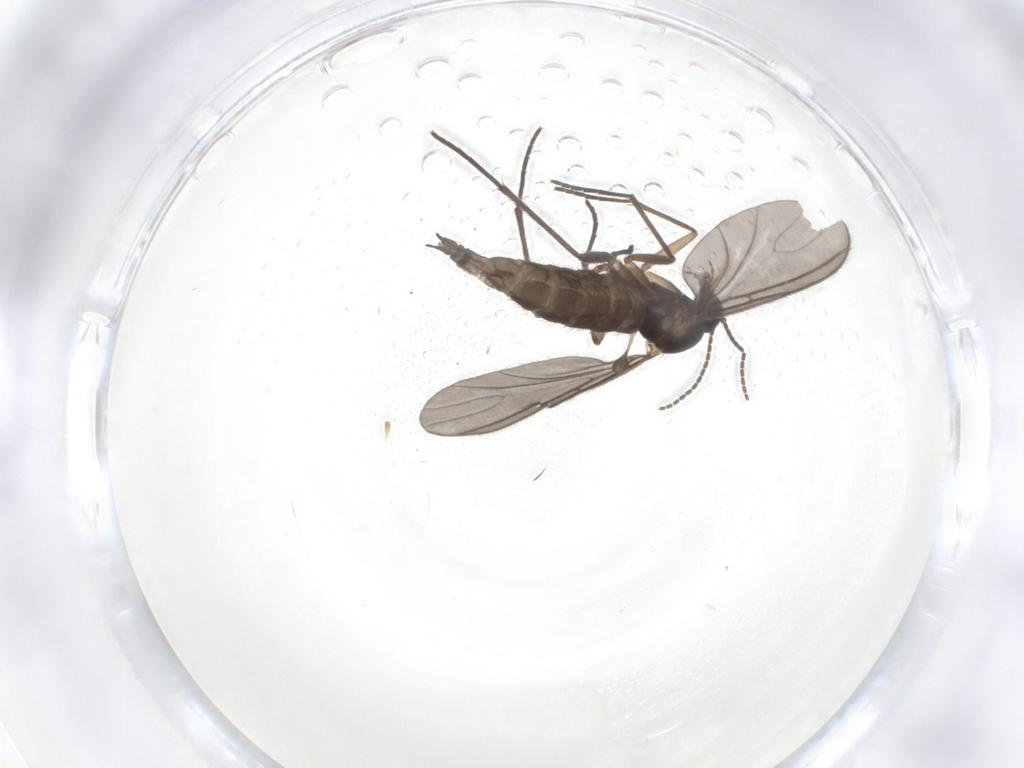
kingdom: Animalia
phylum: Arthropoda
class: Insecta
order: Diptera
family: Sciaridae
